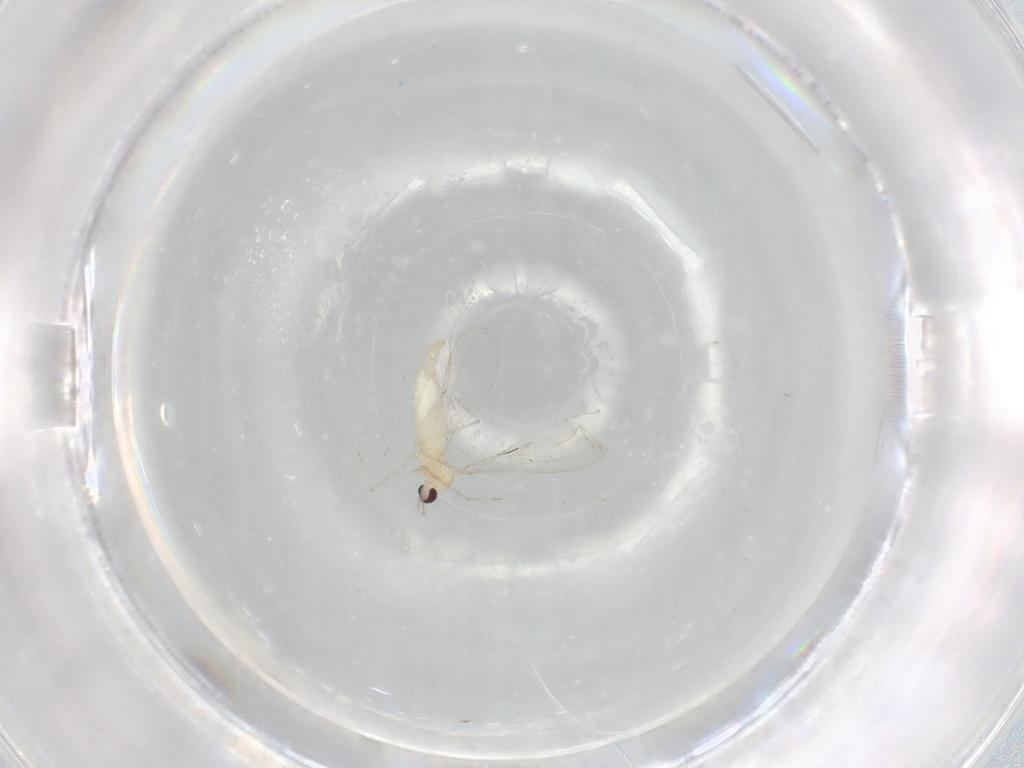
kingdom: Animalia
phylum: Arthropoda
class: Insecta
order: Diptera
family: Cecidomyiidae
